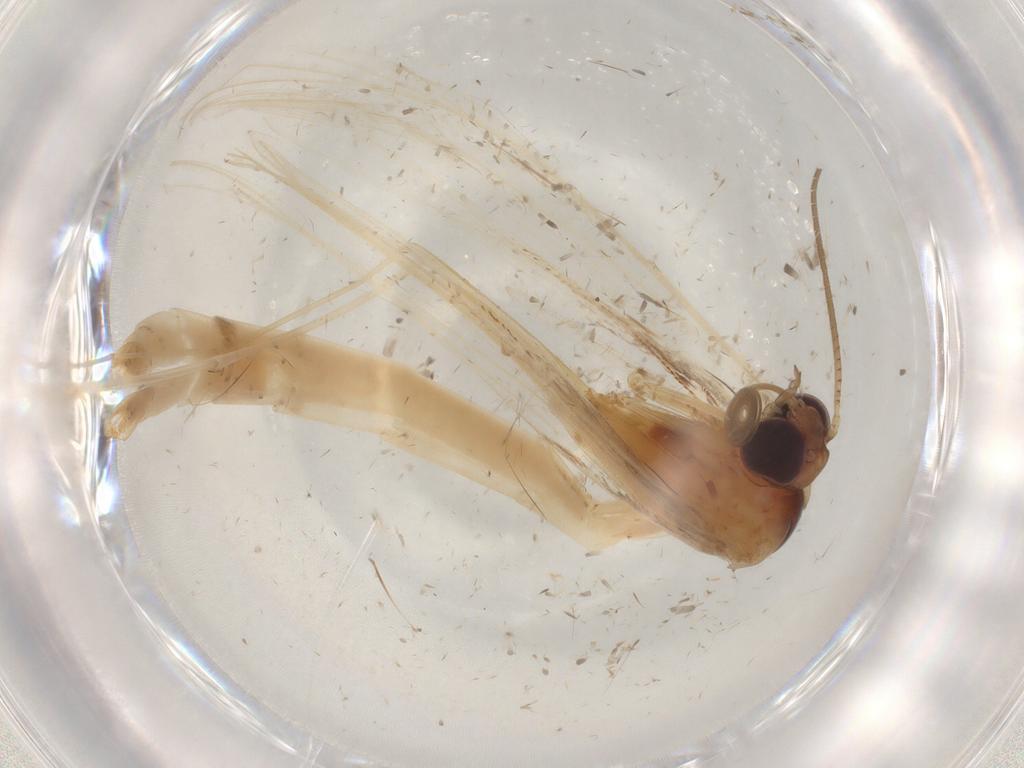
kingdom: Animalia
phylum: Arthropoda
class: Insecta
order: Lepidoptera
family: Pterophoridae
